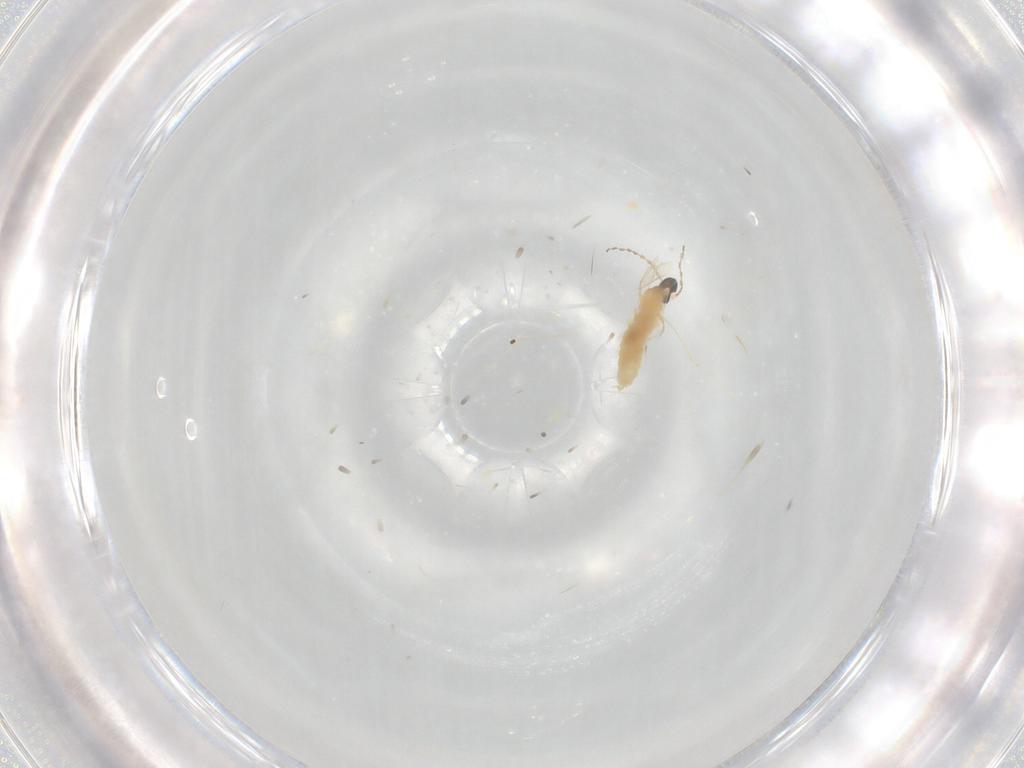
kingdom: Animalia
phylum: Arthropoda
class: Insecta
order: Diptera
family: Cecidomyiidae
